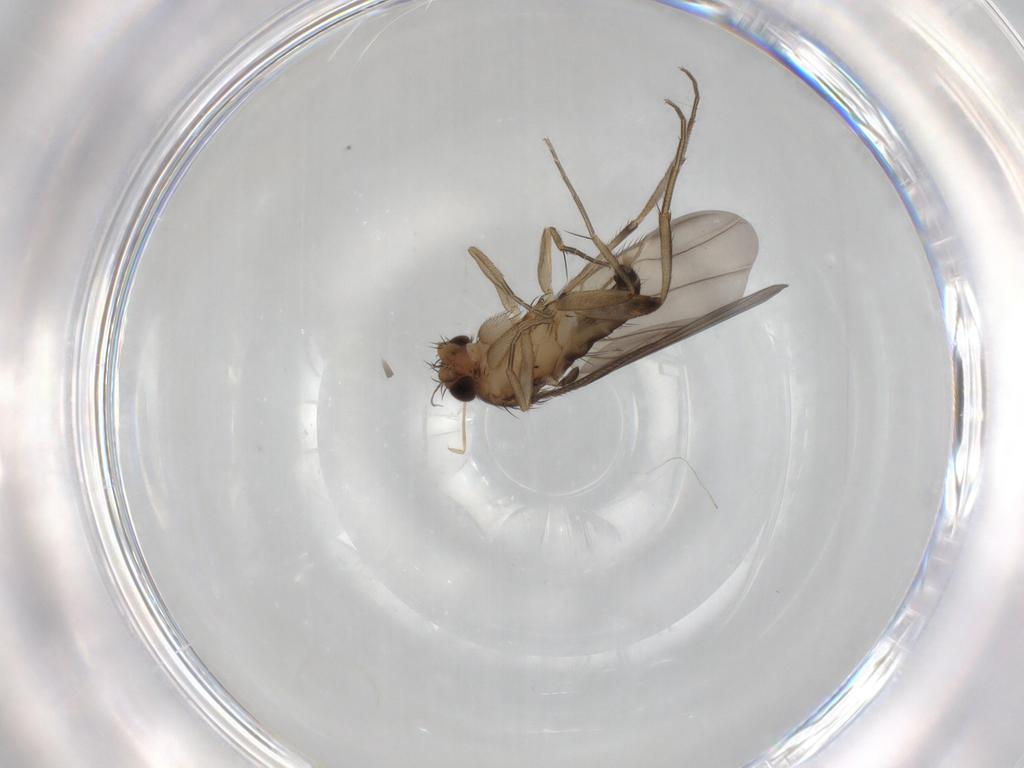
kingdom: Animalia
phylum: Arthropoda
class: Insecta
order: Diptera
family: Phoridae
